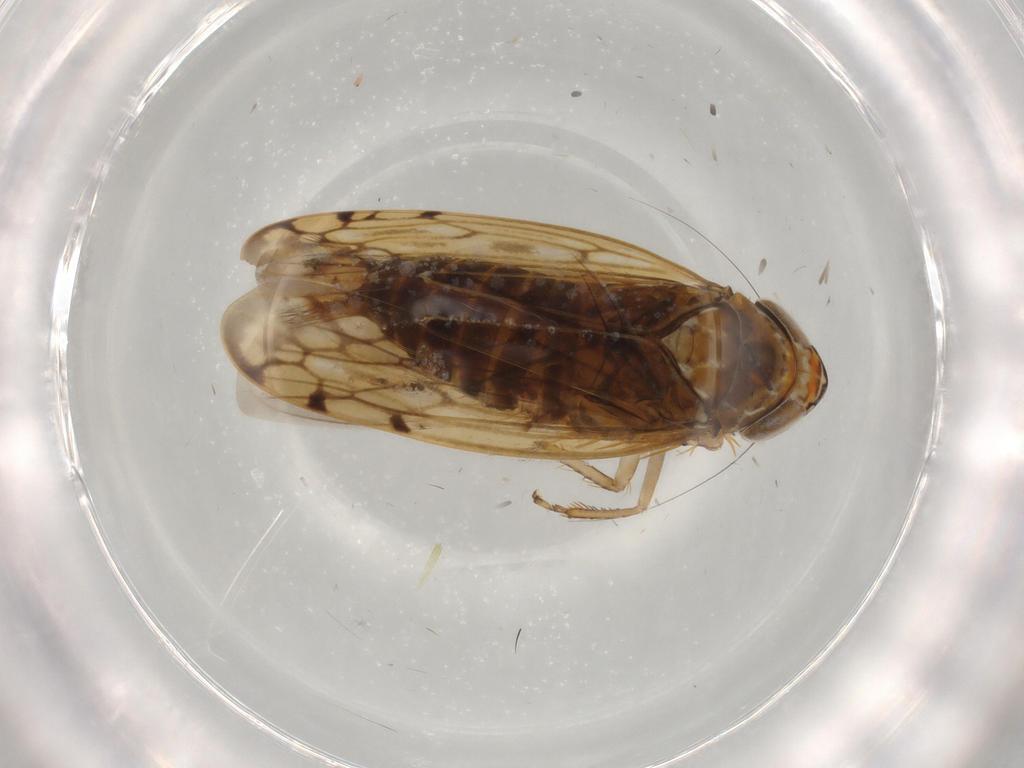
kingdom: Animalia
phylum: Arthropoda
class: Insecta
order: Hemiptera
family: Cicadellidae
